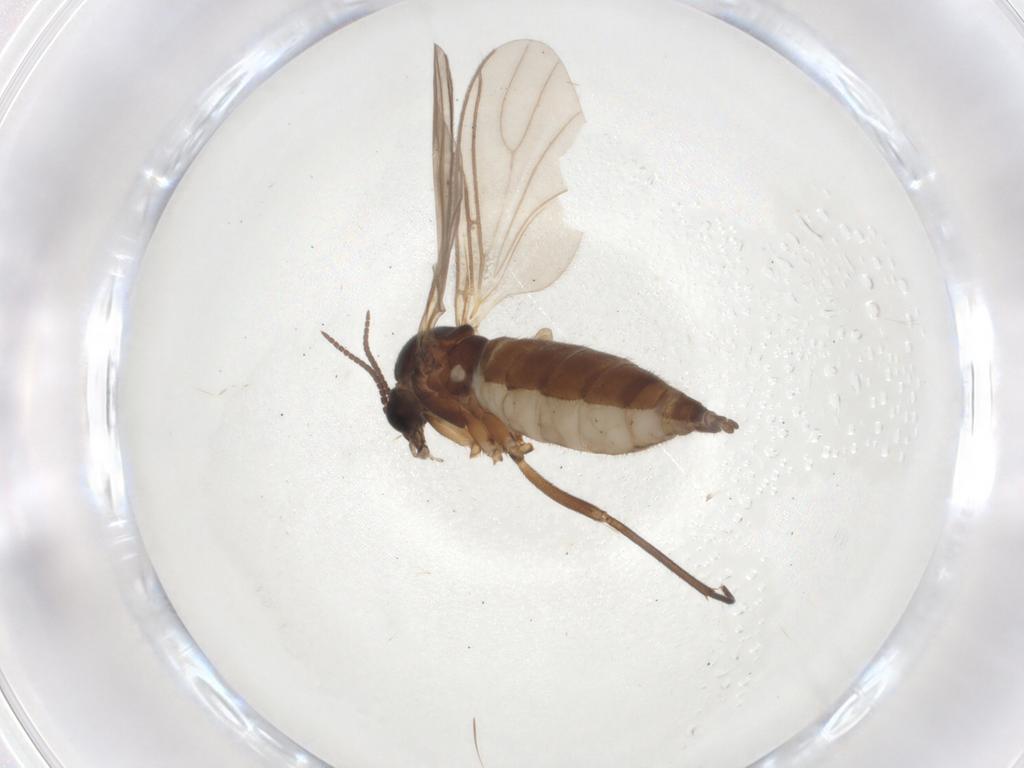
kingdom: Animalia
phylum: Arthropoda
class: Insecta
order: Diptera
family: Sciaridae
